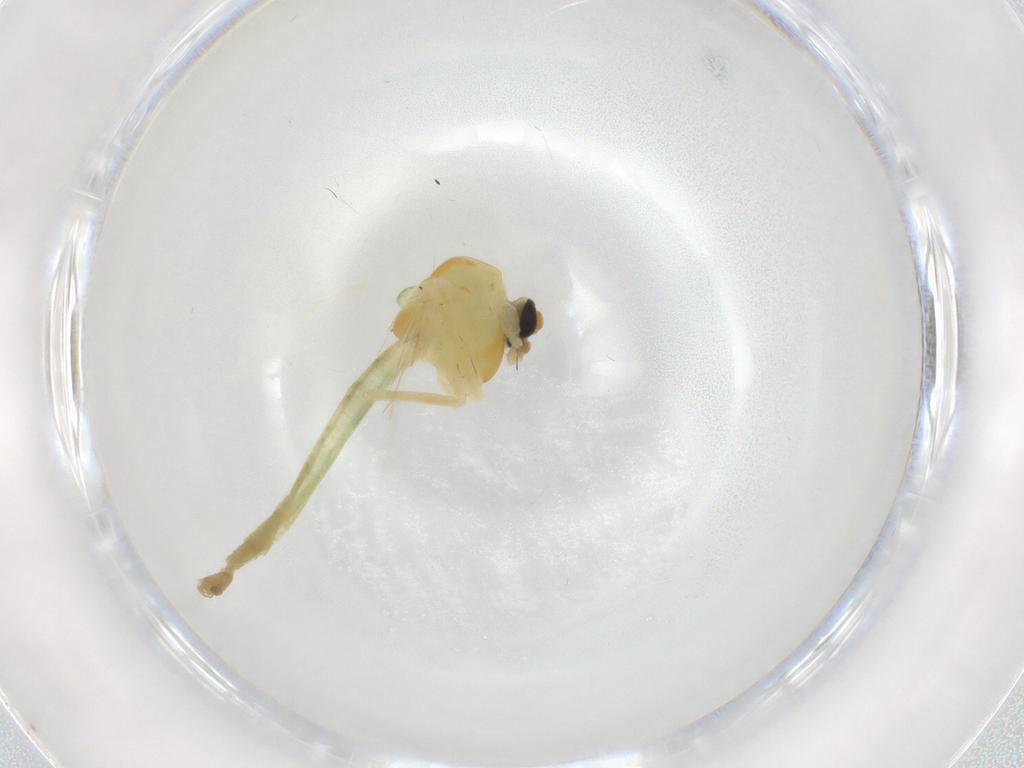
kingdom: Animalia
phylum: Arthropoda
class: Insecta
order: Diptera
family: Chironomidae
